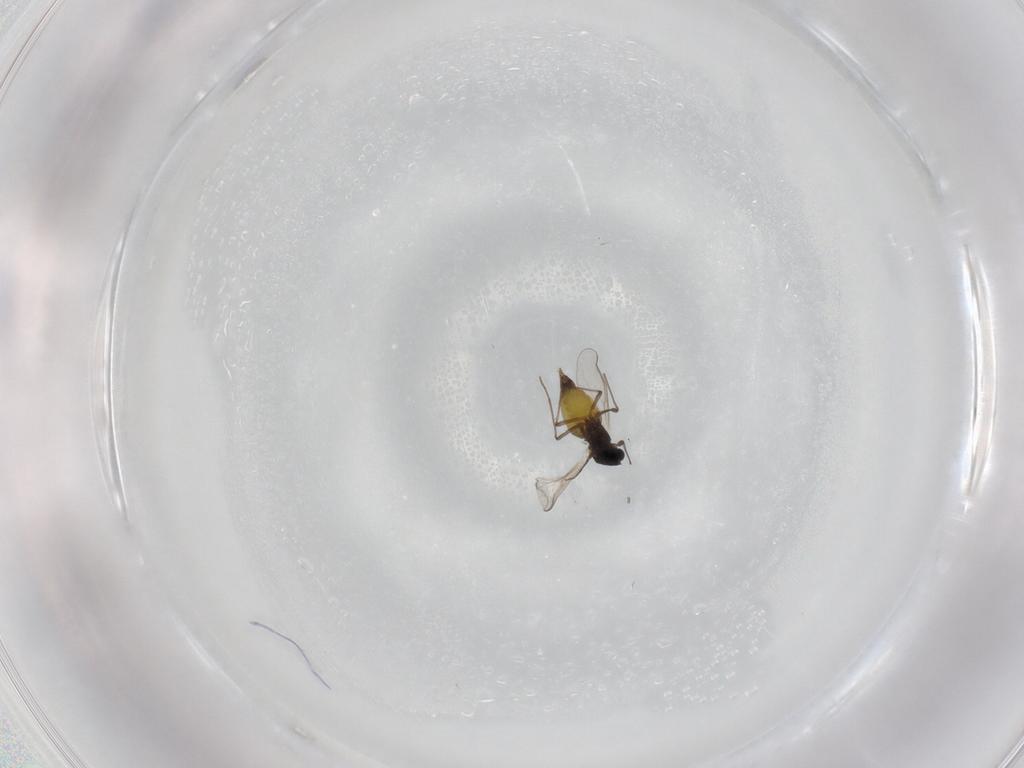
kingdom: Animalia
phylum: Arthropoda
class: Insecta
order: Diptera
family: Chironomidae
